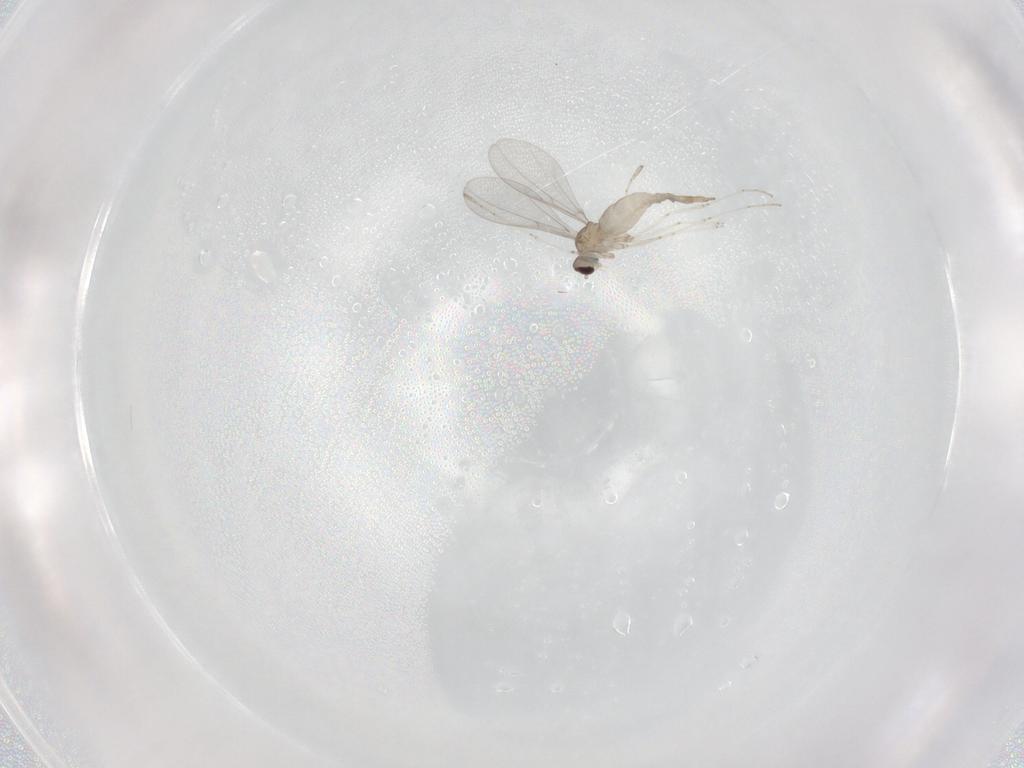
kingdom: Animalia
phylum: Arthropoda
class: Insecta
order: Diptera
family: Cecidomyiidae
